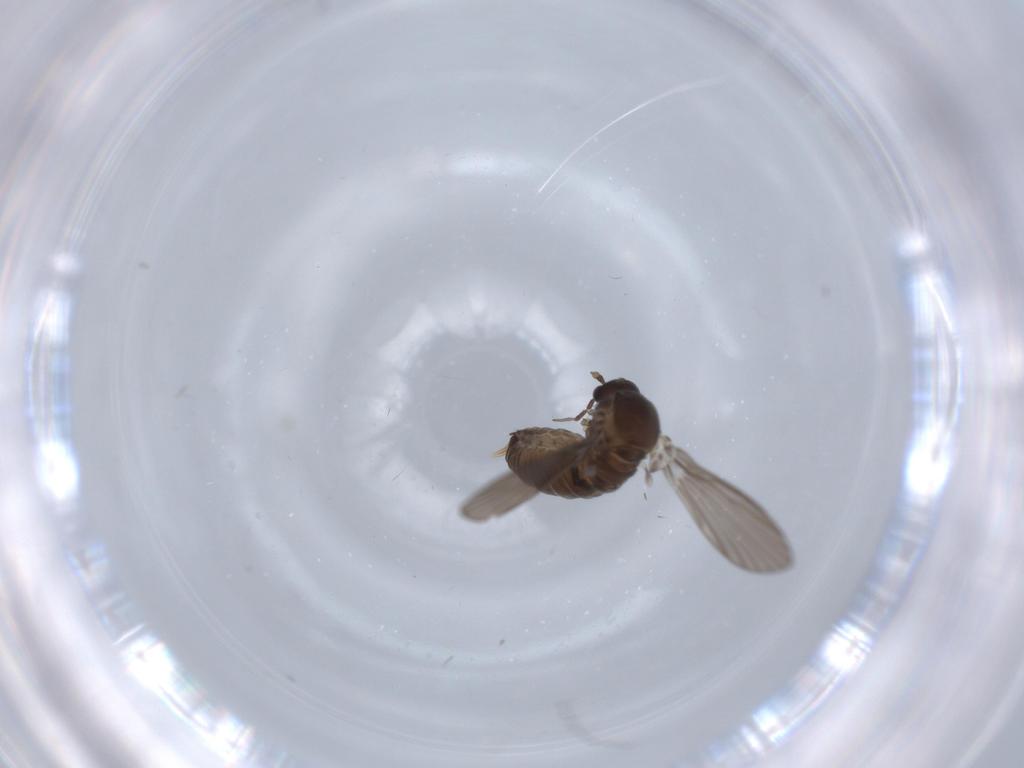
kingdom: Animalia
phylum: Arthropoda
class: Insecta
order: Diptera
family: Psychodidae
